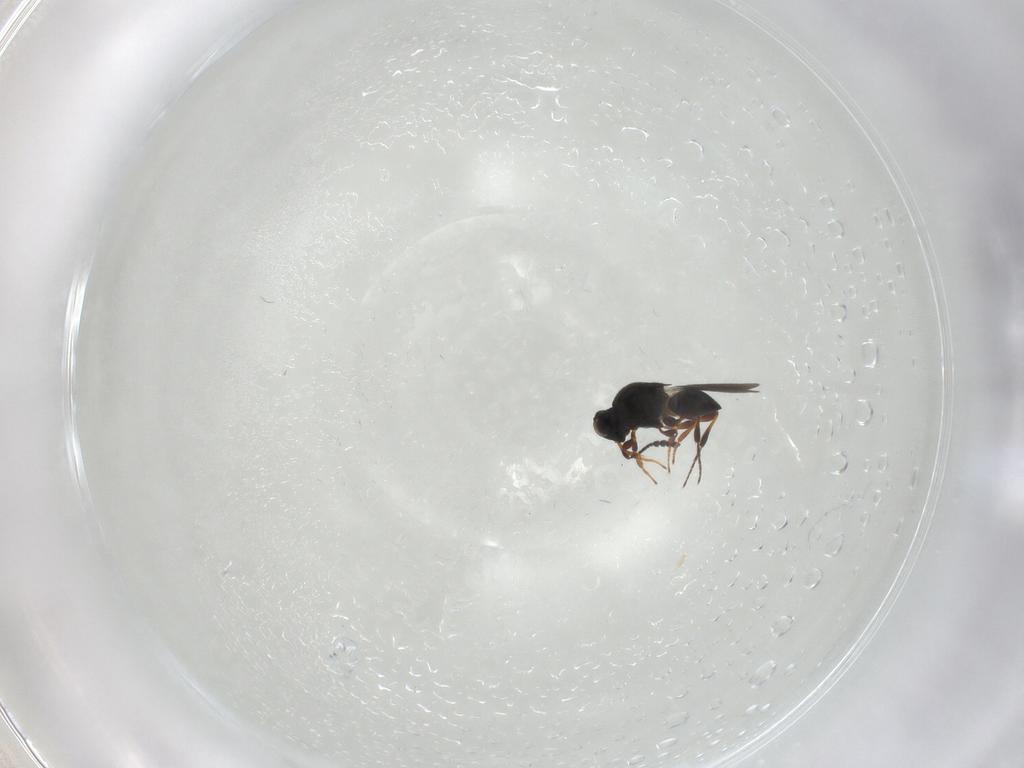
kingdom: Animalia
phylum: Arthropoda
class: Insecta
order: Hymenoptera
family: Platygastridae
